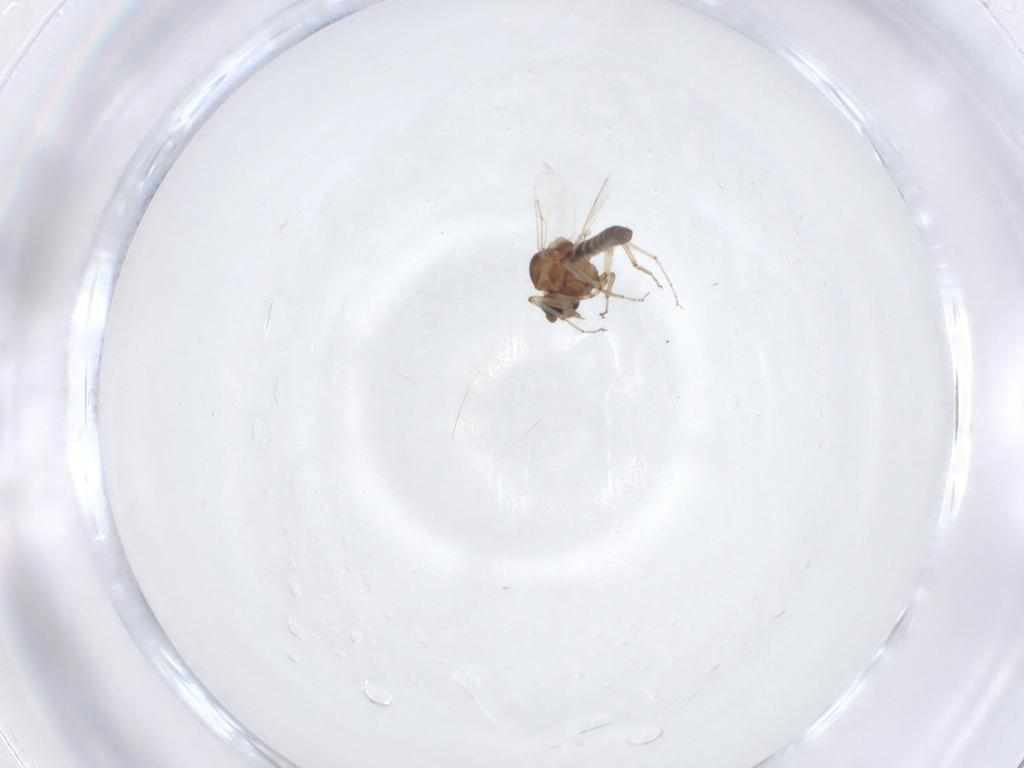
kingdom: Animalia
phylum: Arthropoda
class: Insecta
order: Diptera
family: Ceratopogonidae
